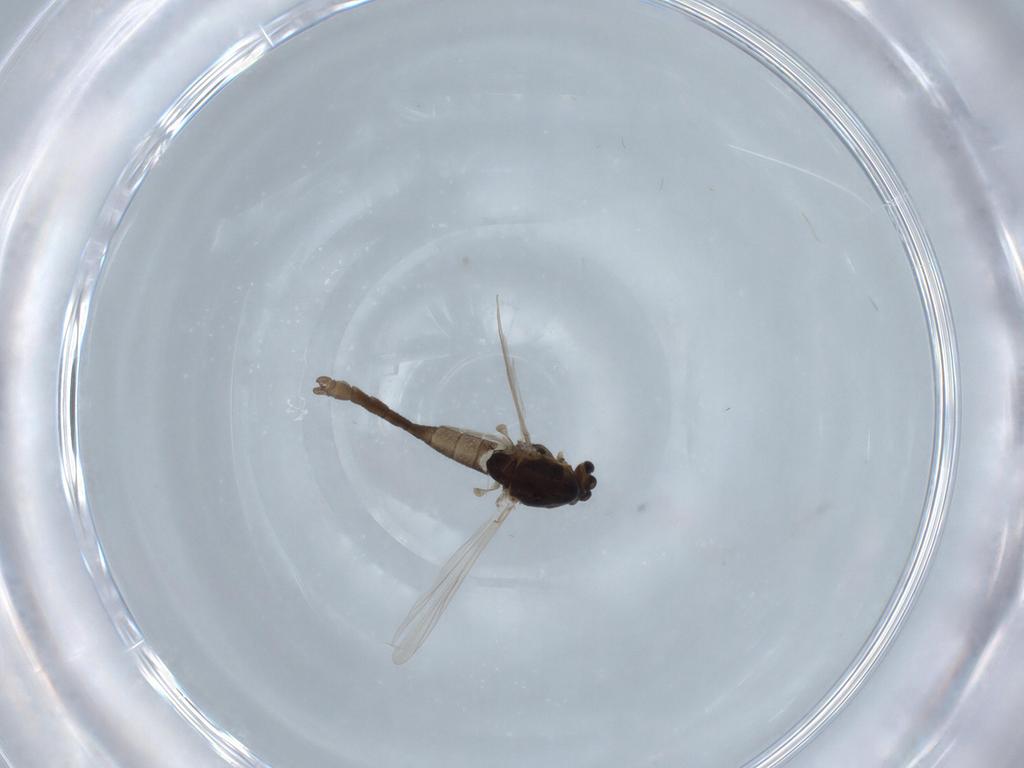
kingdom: Animalia
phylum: Arthropoda
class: Insecta
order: Diptera
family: Chironomidae
